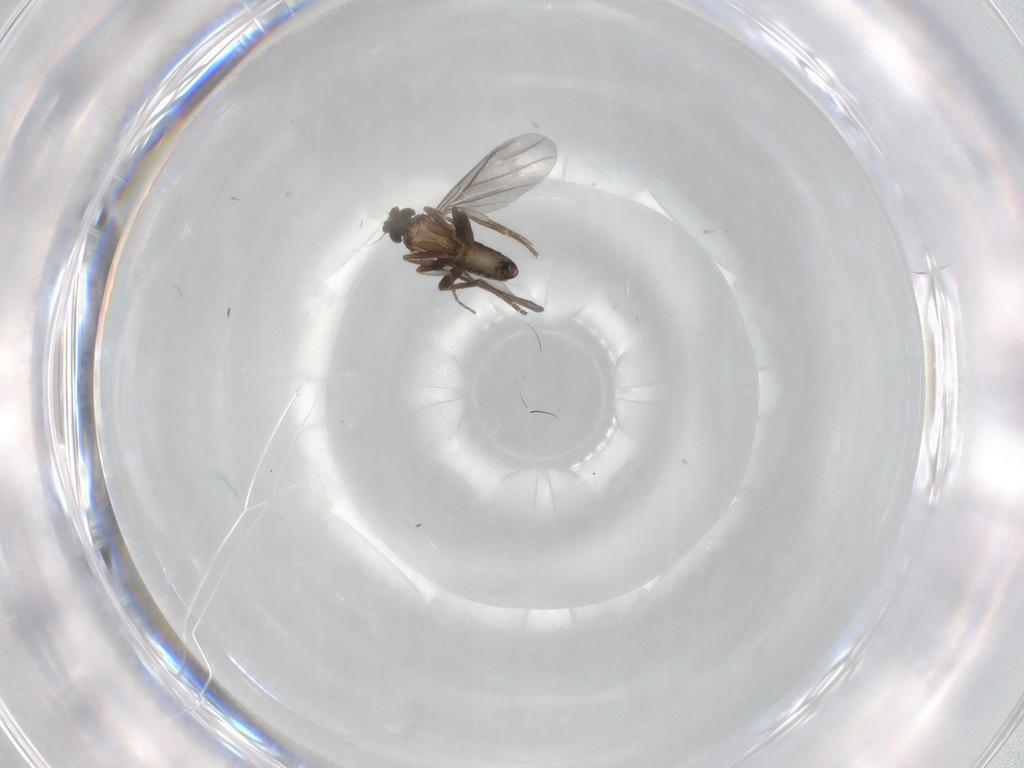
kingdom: Animalia
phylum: Arthropoda
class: Insecta
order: Diptera
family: Phoridae
